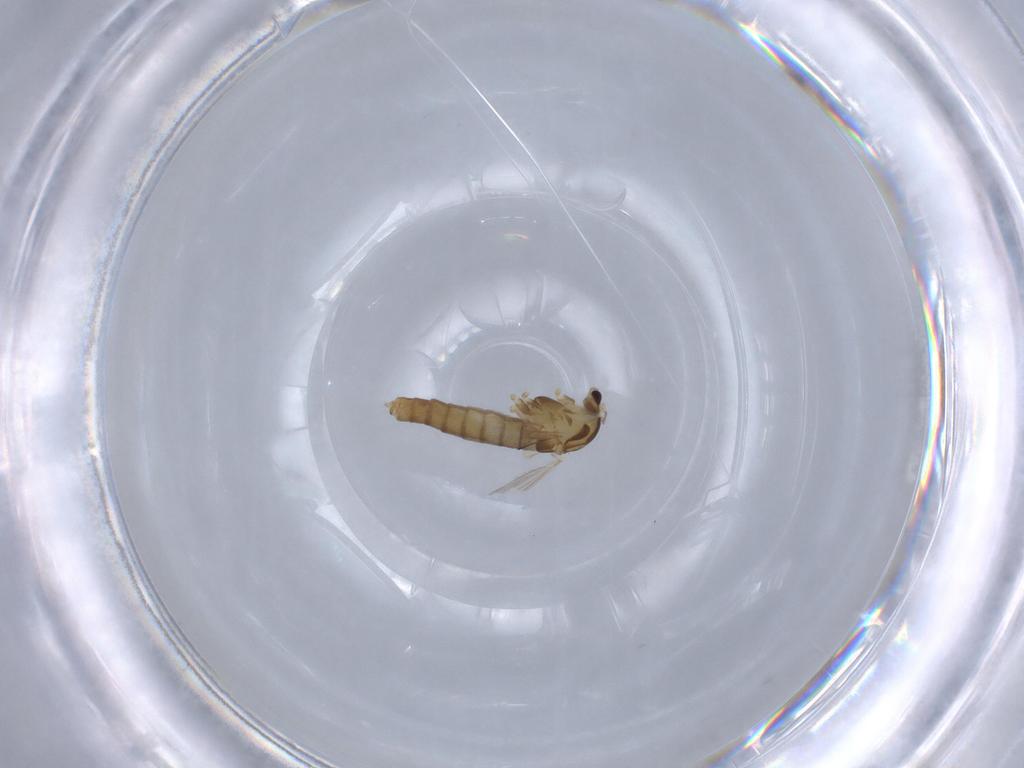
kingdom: Animalia
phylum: Arthropoda
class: Insecta
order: Diptera
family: Chironomidae
